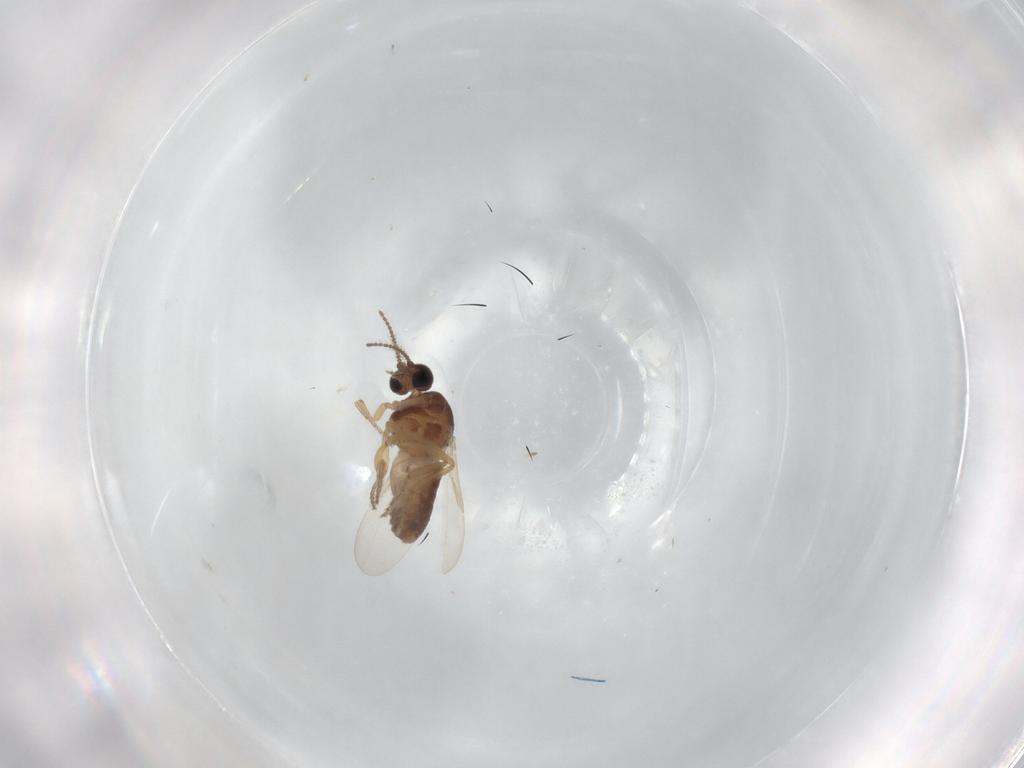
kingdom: Animalia
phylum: Arthropoda
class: Insecta
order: Diptera
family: Ceratopogonidae
